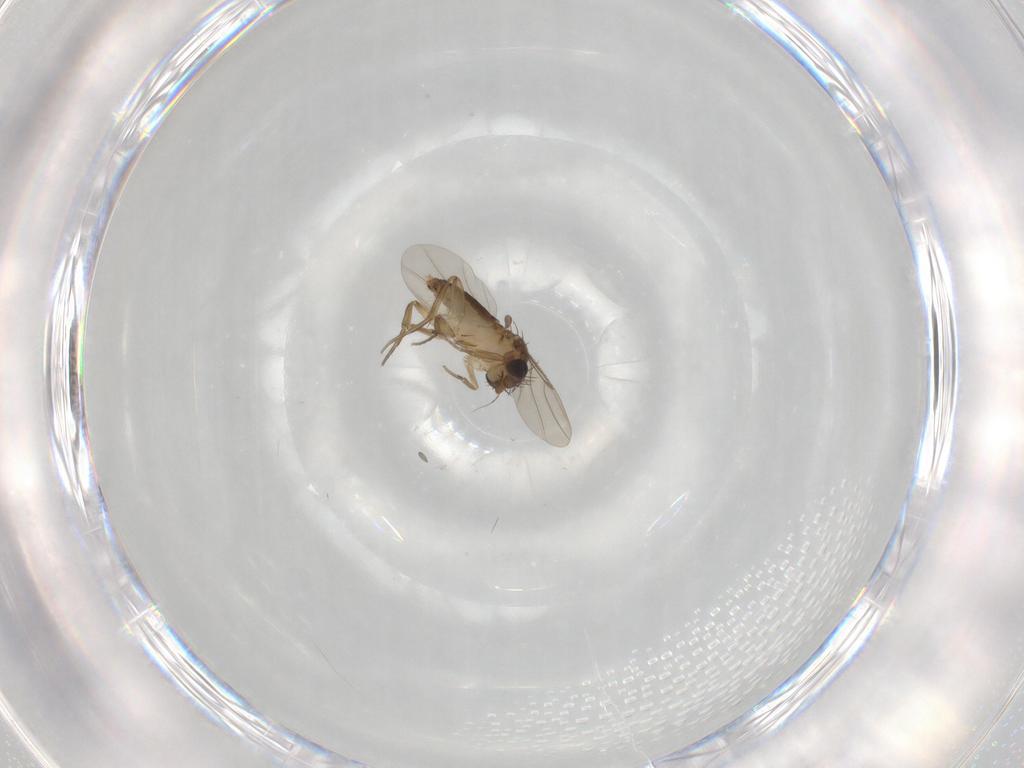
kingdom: Animalia
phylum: Arthropoda
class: Insecta
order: Diptera
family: Phoridae
